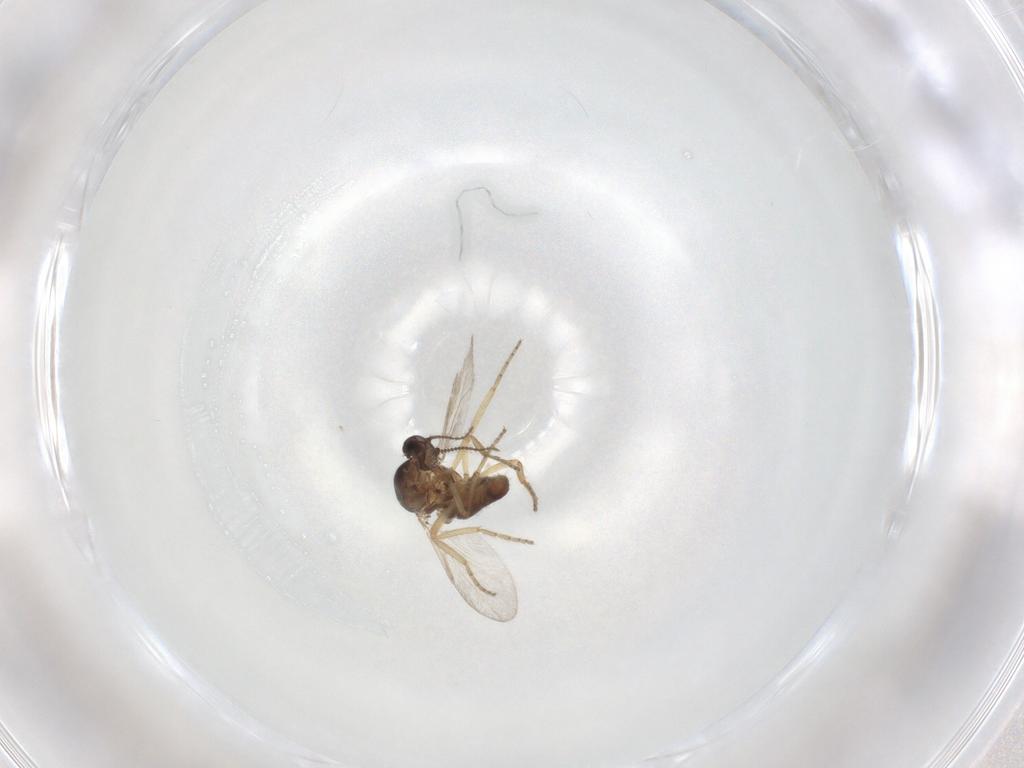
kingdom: Animalia
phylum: Arthropoda
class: Insecta
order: Diptera
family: Ceratopogonidae
